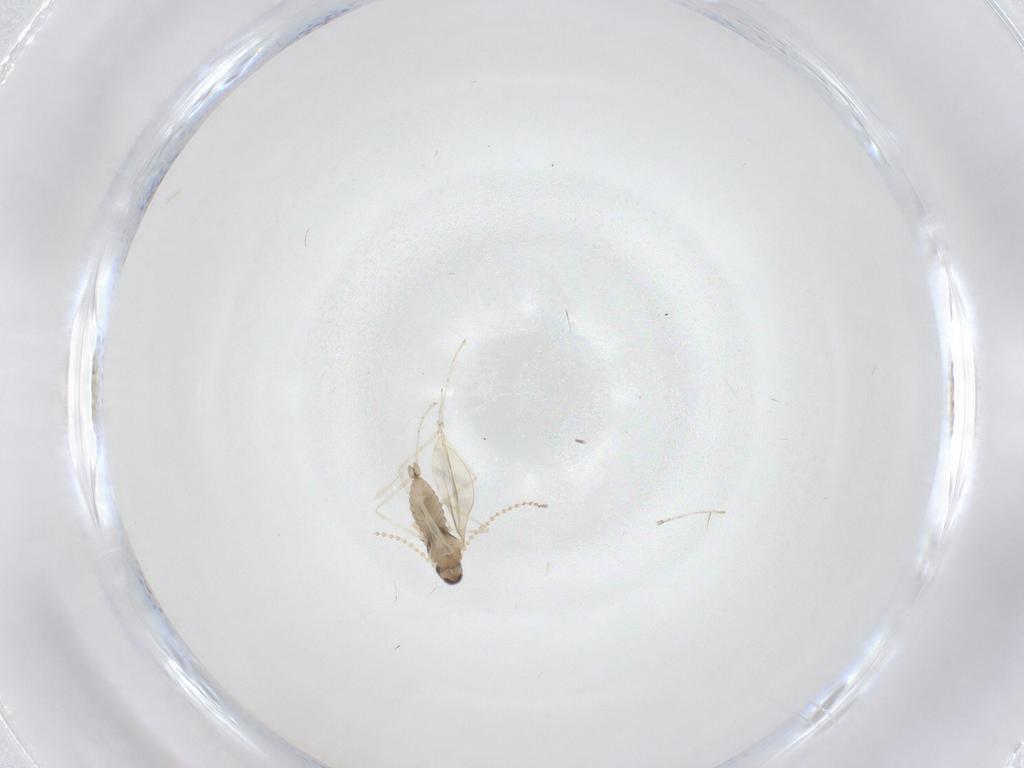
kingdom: Animalia
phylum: Arthropoda
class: Insecta
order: Diptera
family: Cecidomyiidae
